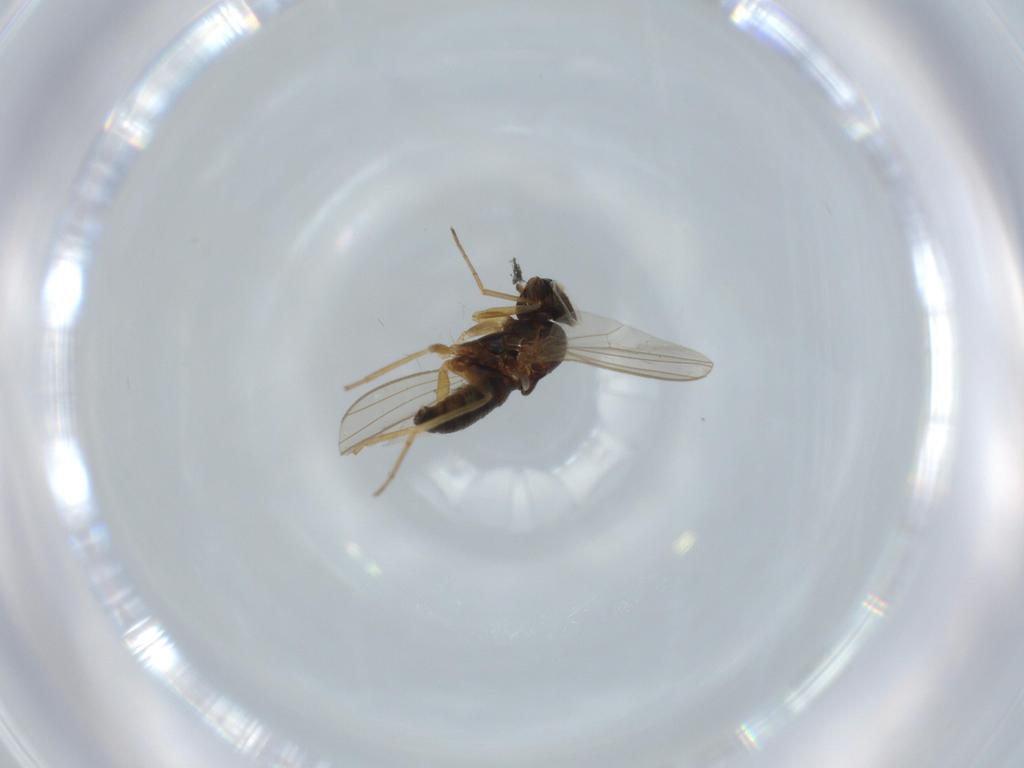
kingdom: Animalia
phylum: Arthropoda
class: Insecta
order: Diptera
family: Dolichopodidae
